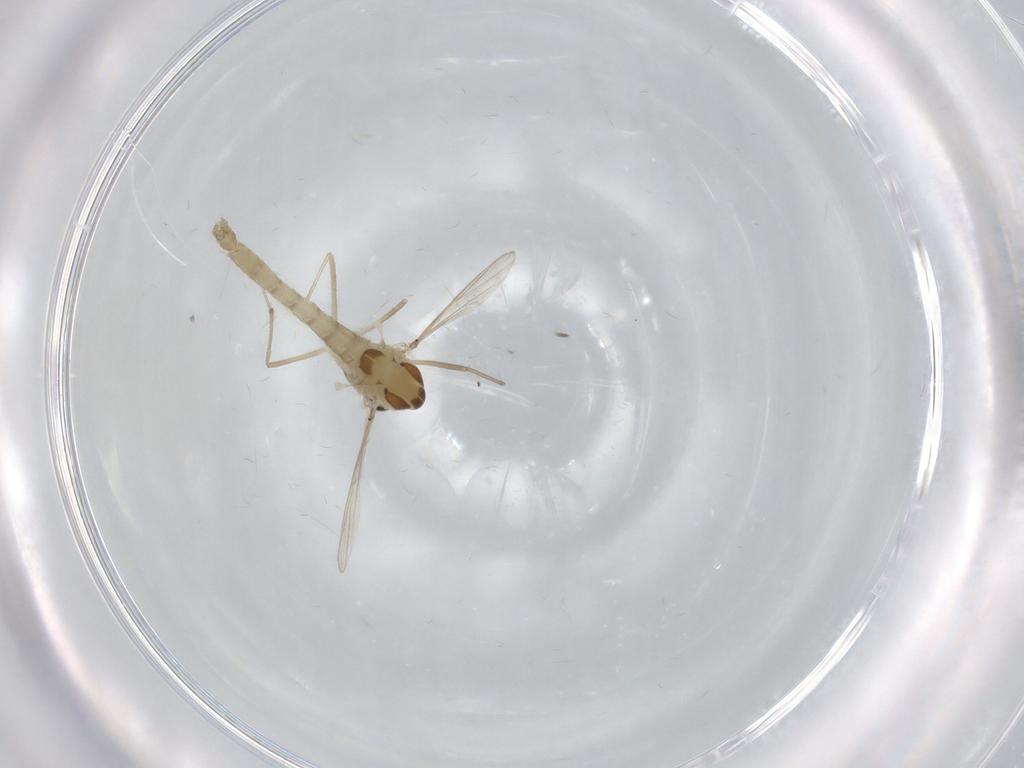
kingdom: Animalia
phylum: Arthropoda
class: Insecta
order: Diptera
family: Chironomidae
